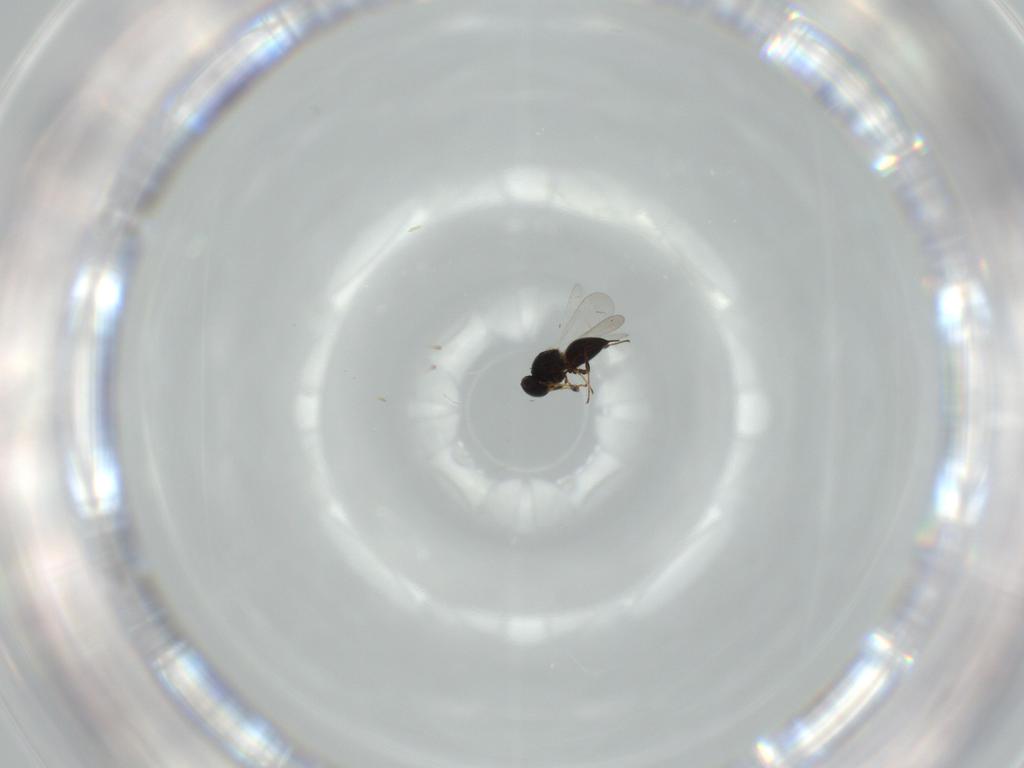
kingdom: Animalia
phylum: Arthropoda
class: Insecta
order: Hymenoptera
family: Platygastridae
